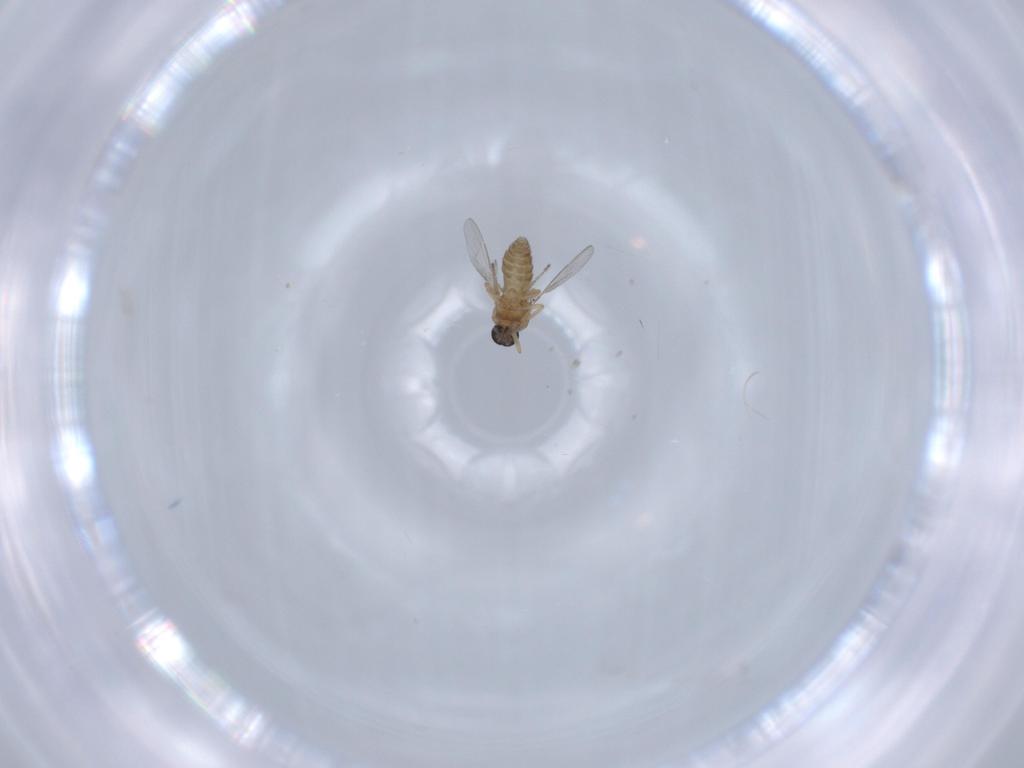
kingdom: Animalia
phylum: Arthropoda
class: Insecta
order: Diptera
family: Ceratopogonidae
